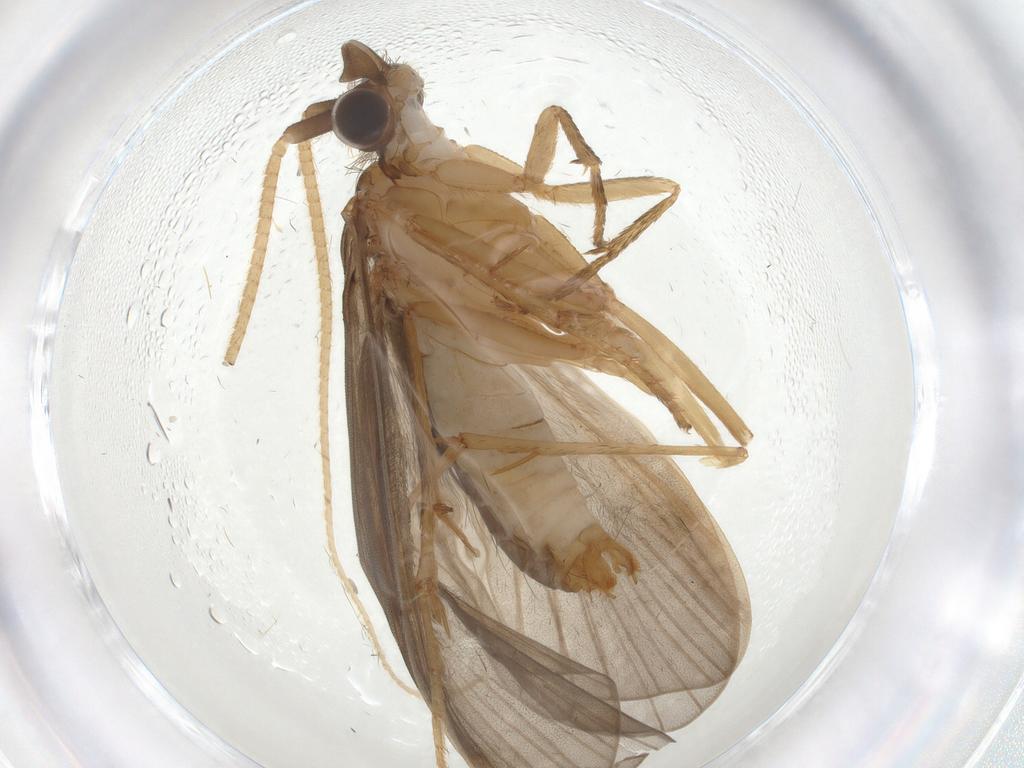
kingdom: Animalia
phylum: Arthropoda
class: Insecta
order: Trichoptera
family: Lepidostomatidae
